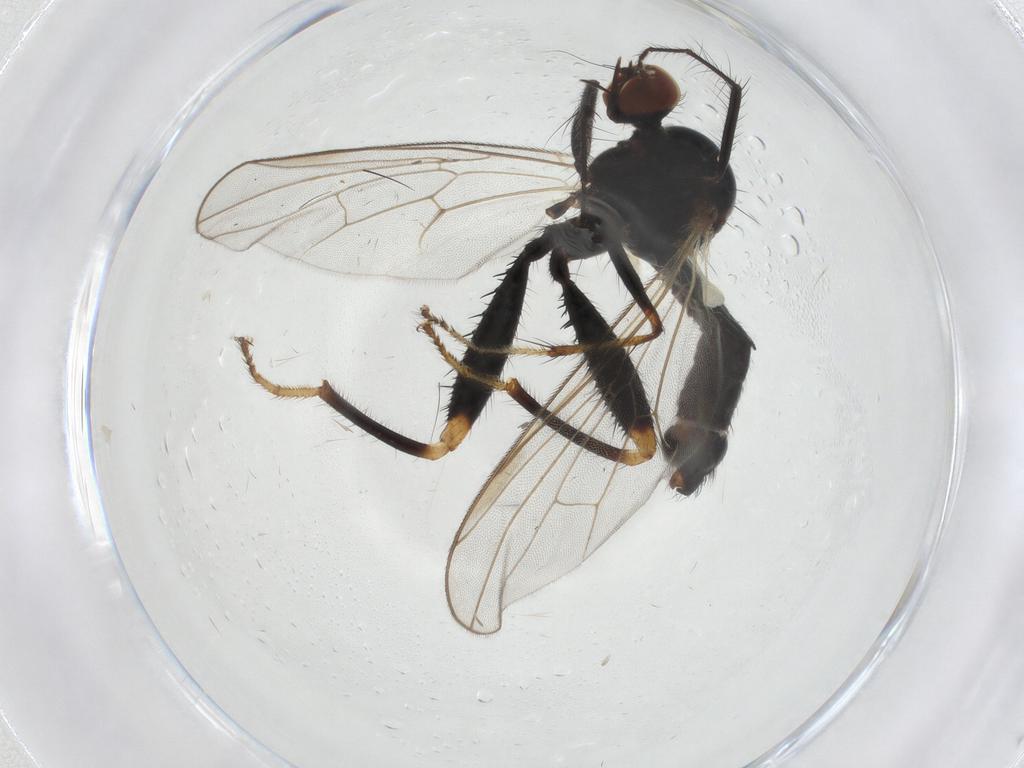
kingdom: Animalia
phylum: Arthropoda
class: Insecta
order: Diptera
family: Hybotidae
